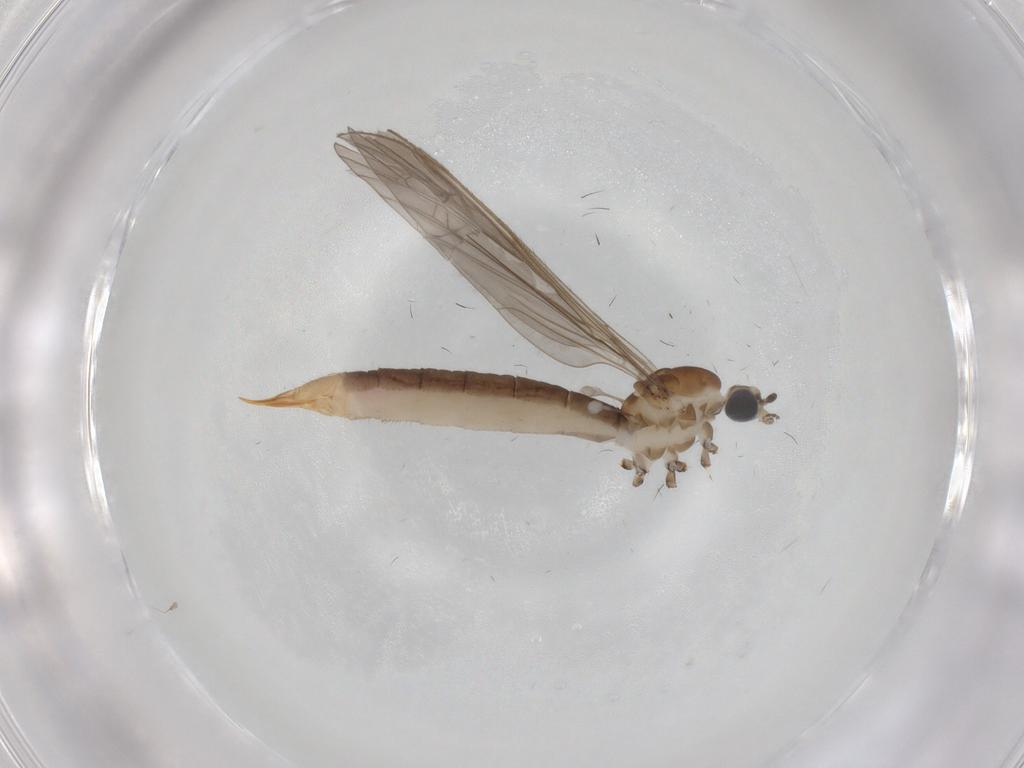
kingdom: Animalia
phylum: Arthropoda
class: Insecta
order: Diptera
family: Limoniidae
